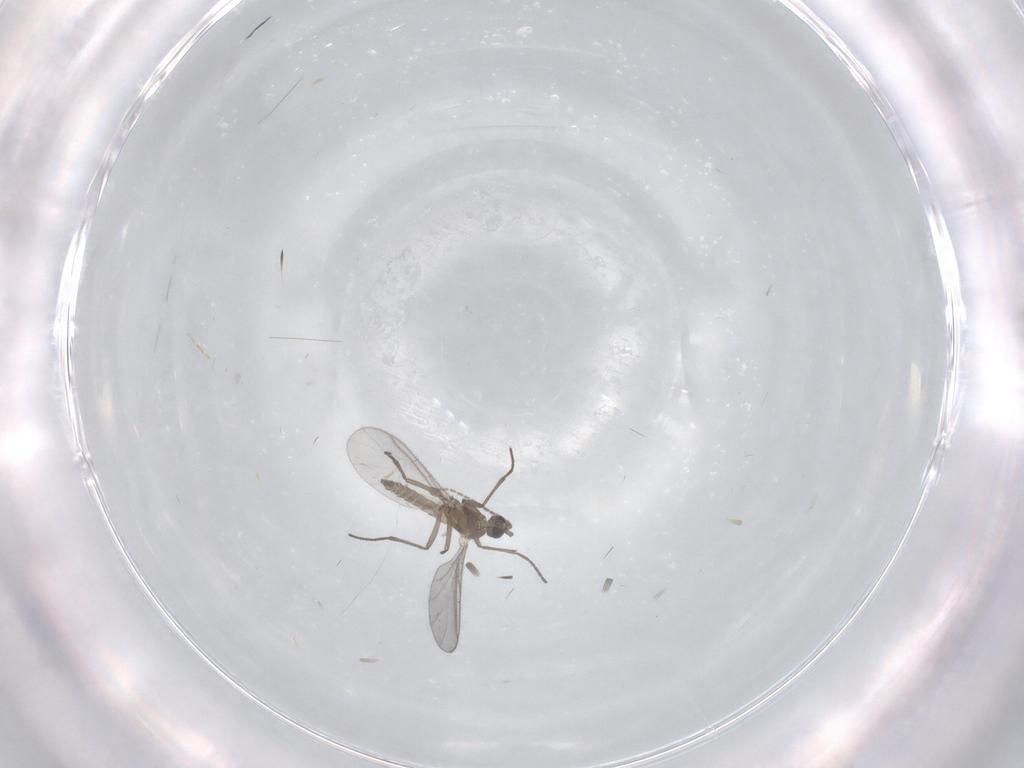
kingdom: Animalia
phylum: Arthropoda
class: Insecta
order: Diptera
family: Sciaridae
